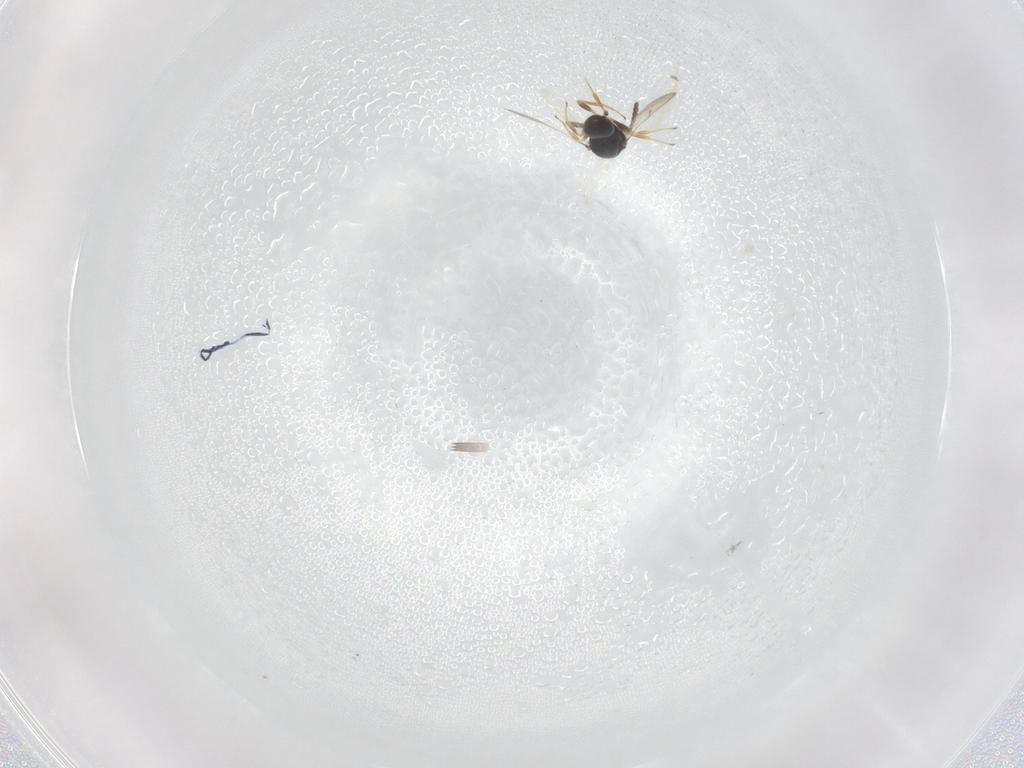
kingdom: Animalia
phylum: Arthropoda
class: Insecta
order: Hymenoptera
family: Scelionidae
